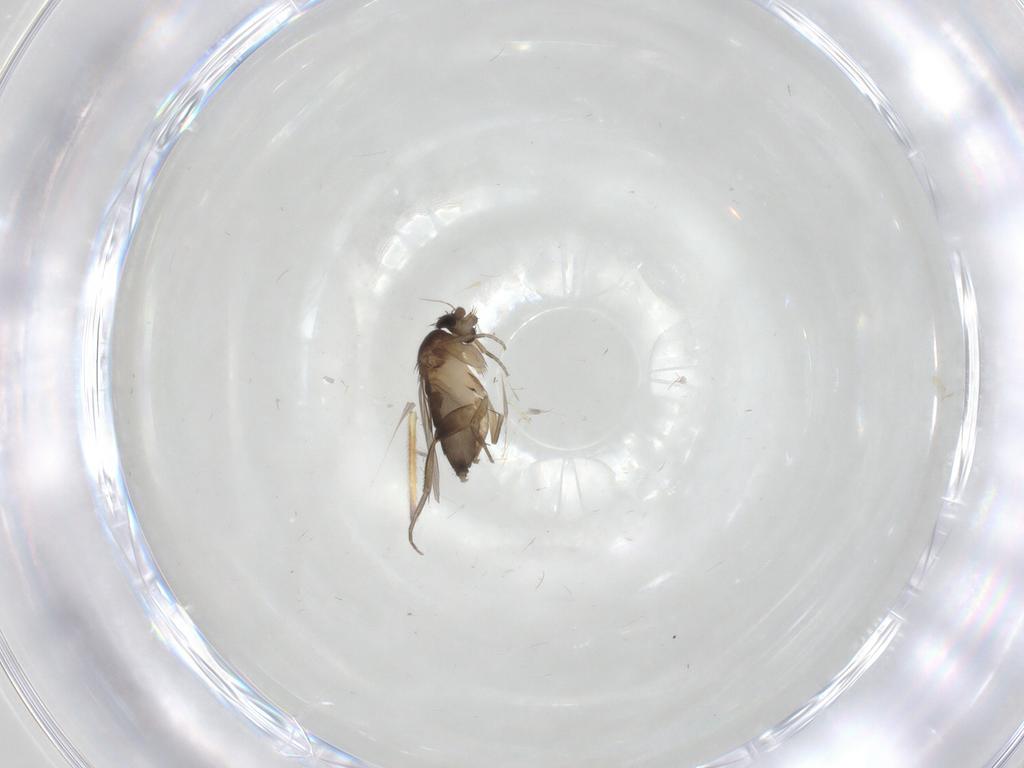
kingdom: Animalia
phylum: Arthropoda
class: Insecta
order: Diptera
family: Phoridae
